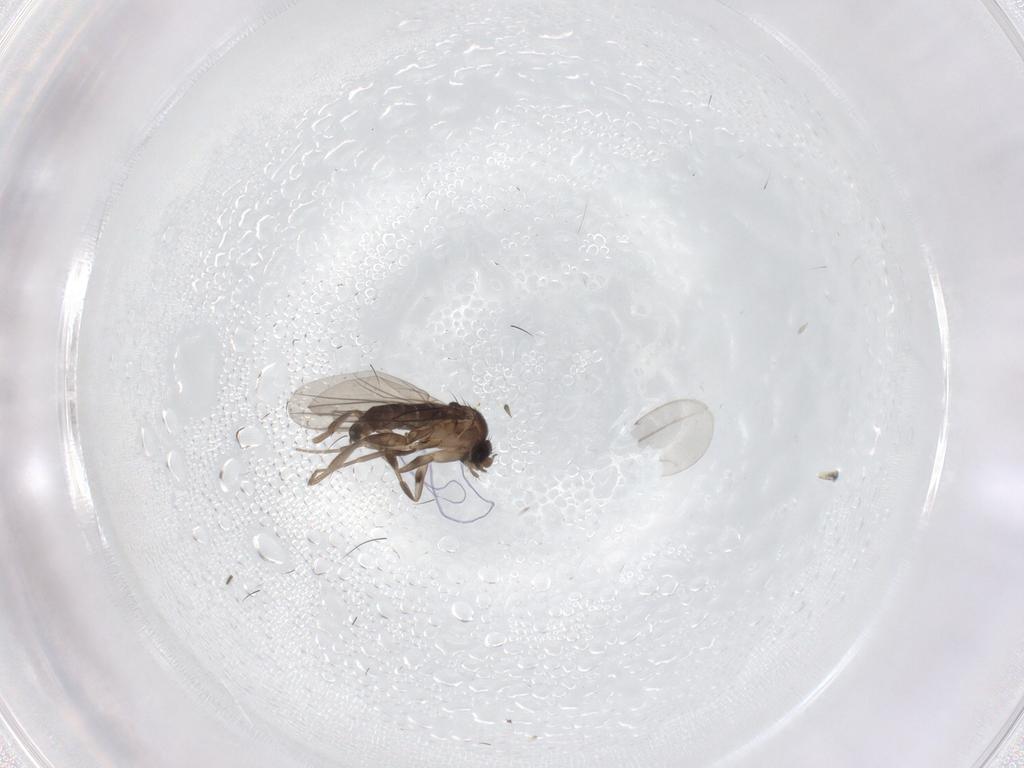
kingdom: Animalia
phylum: Arthropoda
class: Insecta
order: Diptera
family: Phoridae
